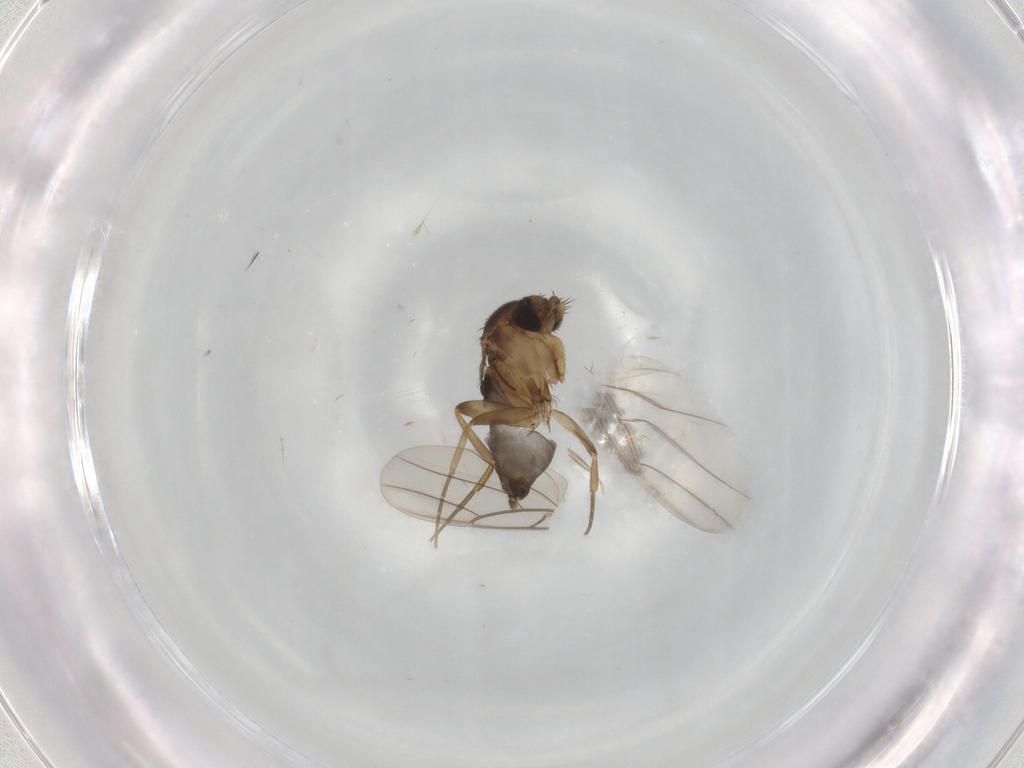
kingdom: Animalia
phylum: Arthropoda
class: Insecta
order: Diptera
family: Phoridae
